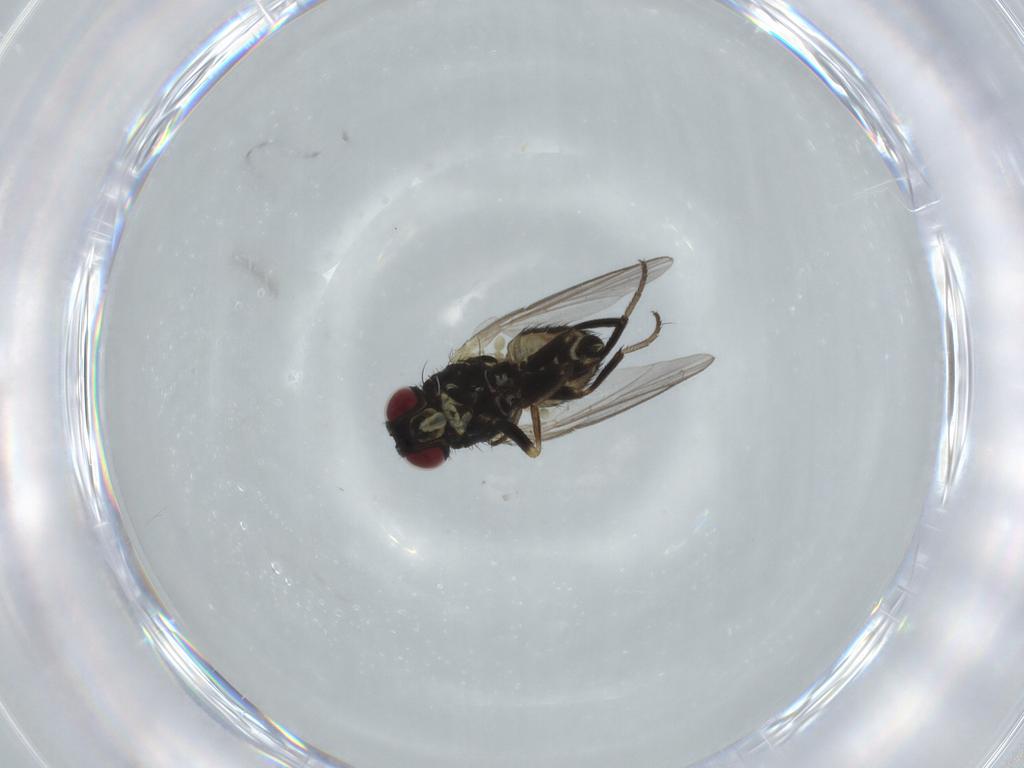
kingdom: Animalia
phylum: Arthropoda
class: Insecta
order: Diptera
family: Agromyzidae
